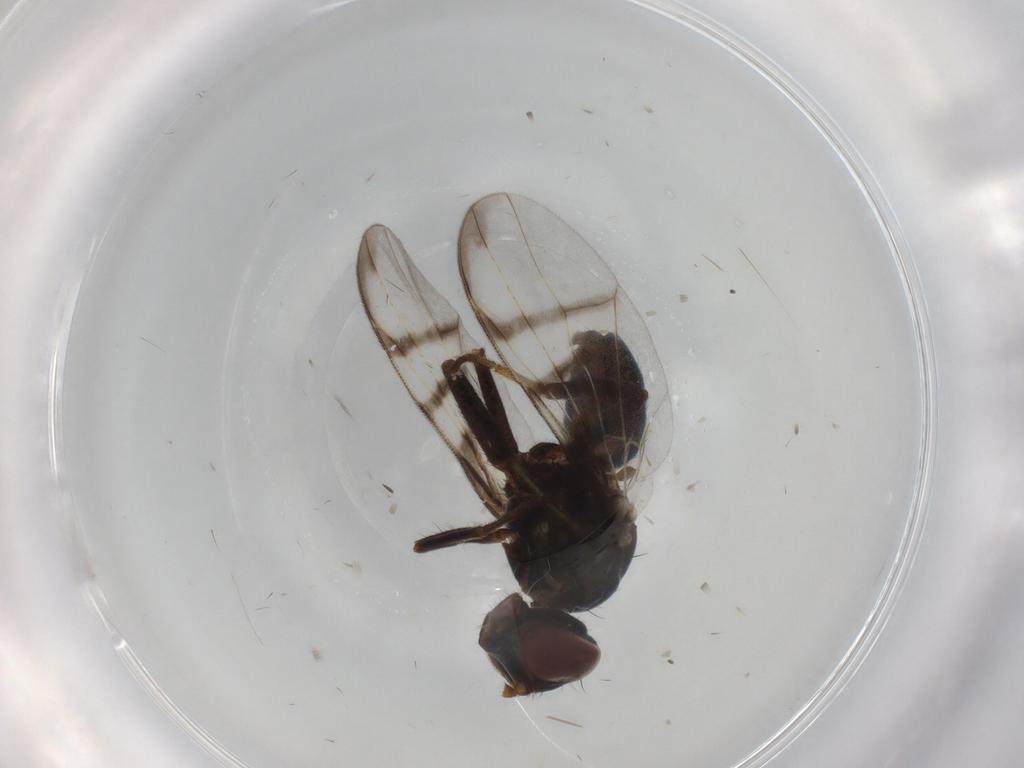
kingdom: Animalia
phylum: Arthropoda
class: Insecta
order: Diptera
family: Platystomatidae
